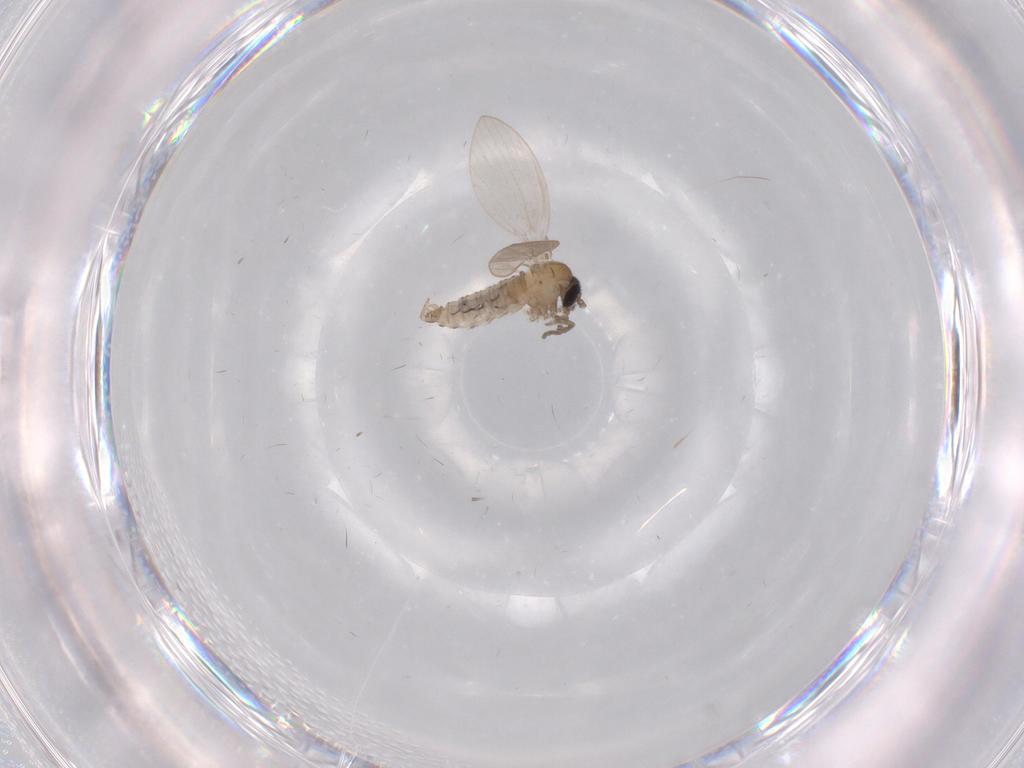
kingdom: Animalia
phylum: Arthropoda
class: Insecta
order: Diptera
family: Psychodidae
